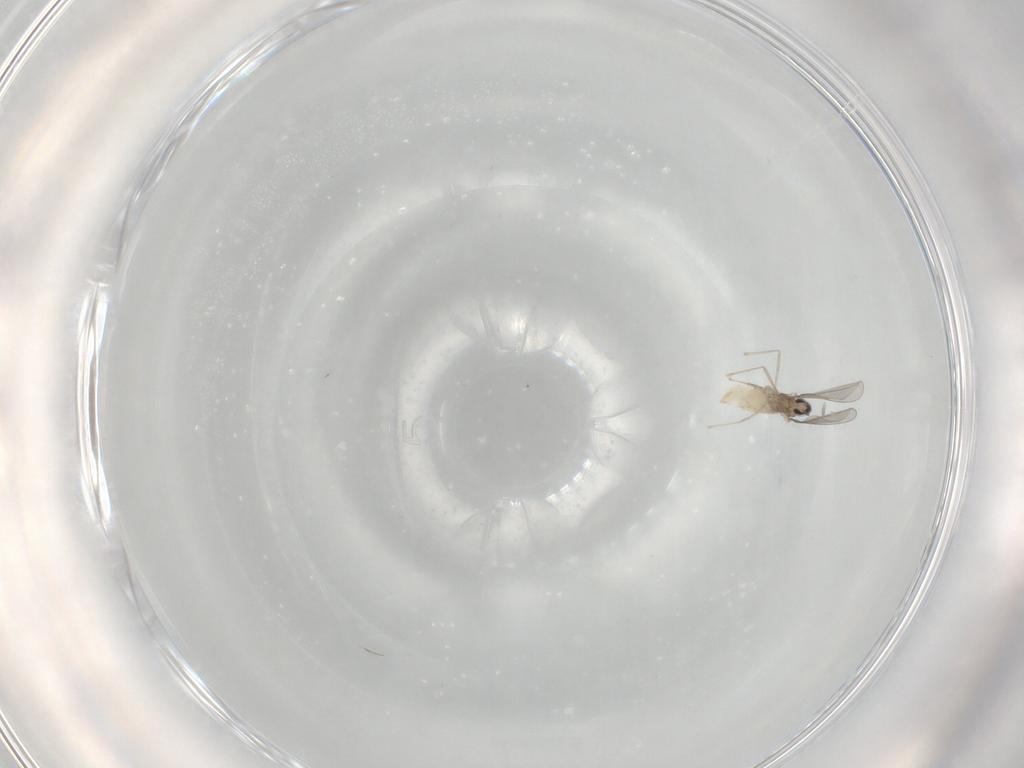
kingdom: Animalia
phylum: Arthropoda
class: Insecta
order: Diptera
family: Cecidomyiidae
